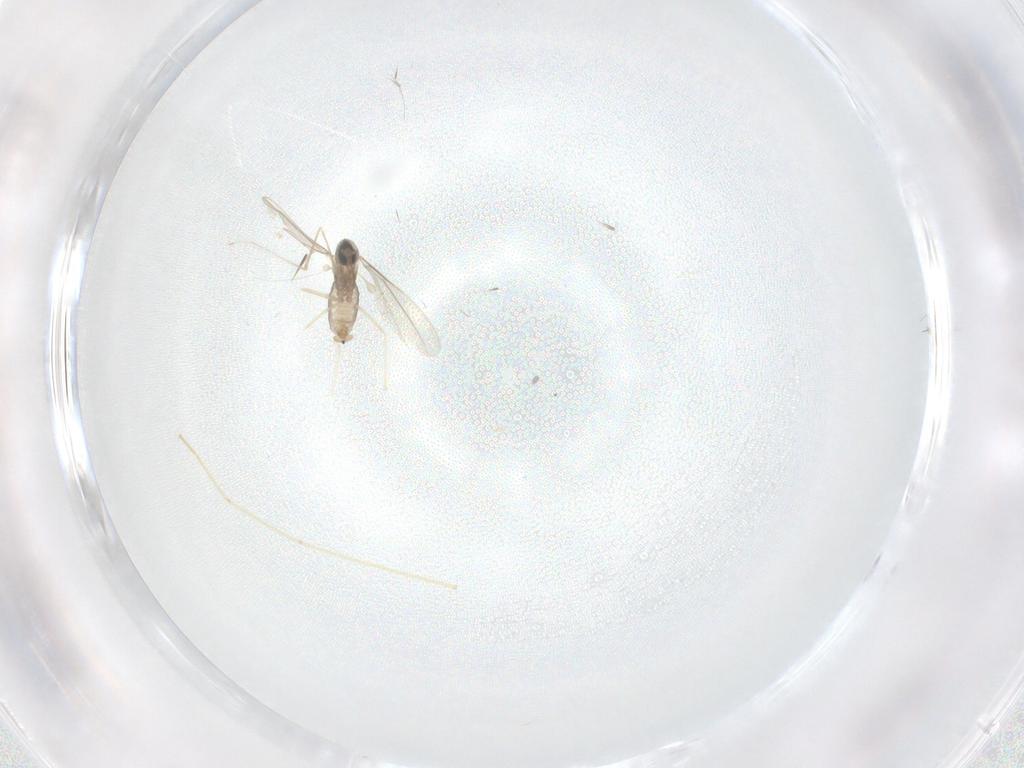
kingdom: Animalia
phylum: Arthropoda
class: Insecta
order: Diptera
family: Cecidomyiidae
